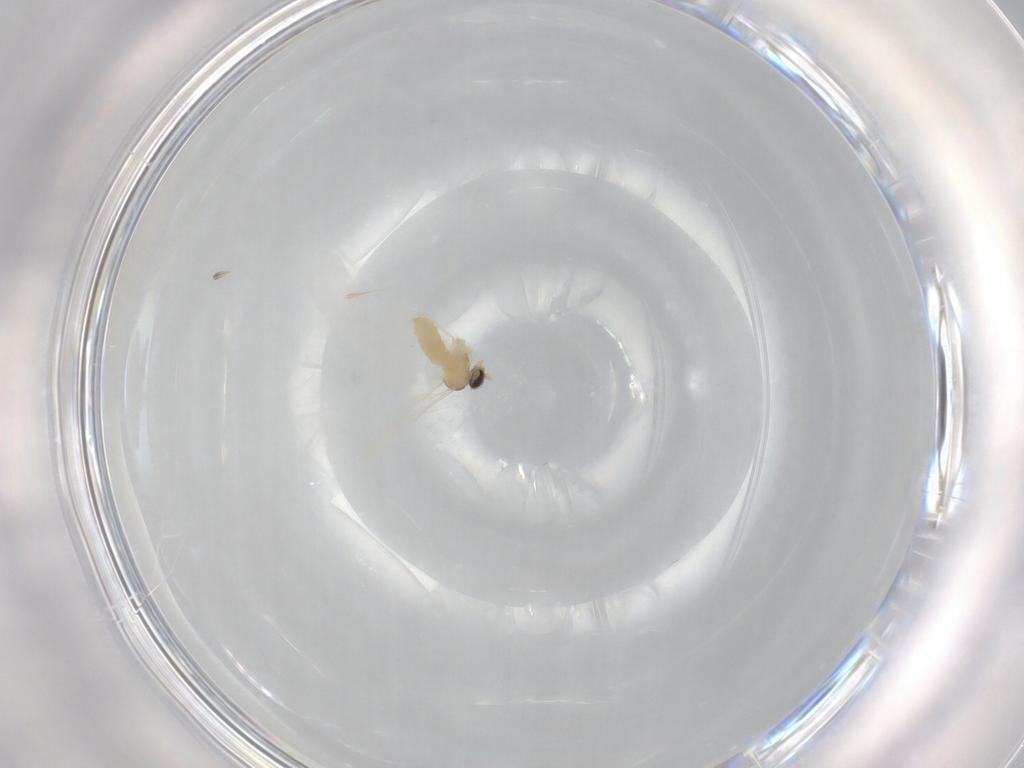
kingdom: Animalia
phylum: Arthropoda
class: Insecta
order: Diptera
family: Cecidomyiidae
